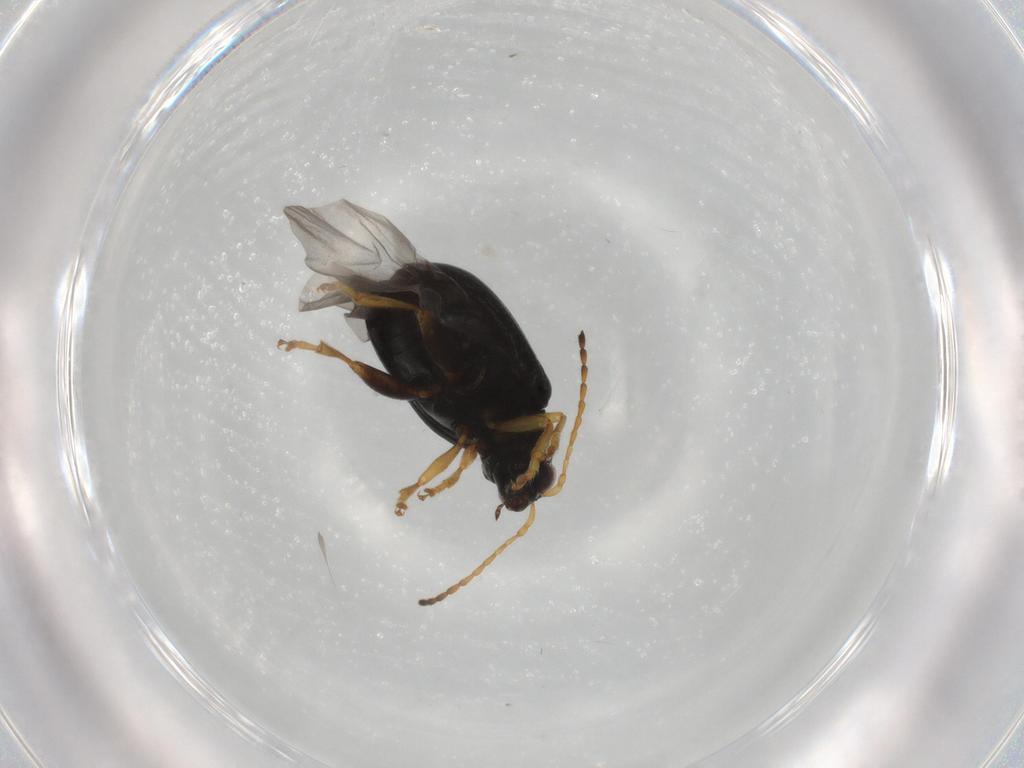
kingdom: Animalia
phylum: Arthropoda
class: Insecta
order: Coleoptera
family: Chrysomelidae
